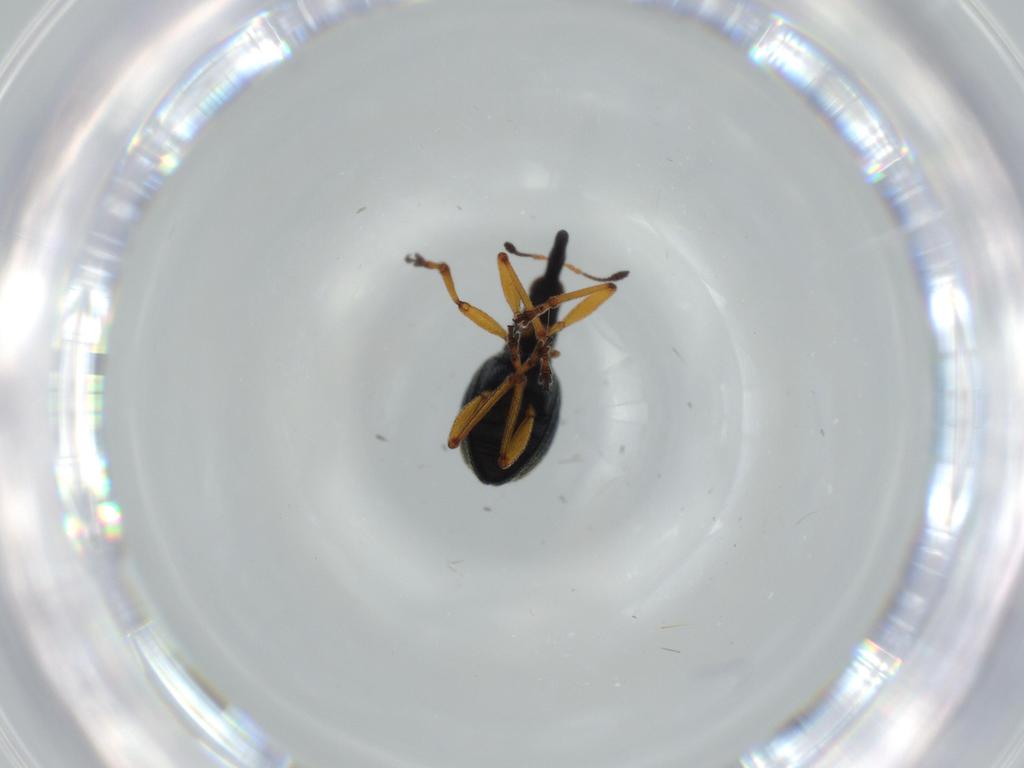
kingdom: Animalia
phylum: Arthropoda
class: Insecta
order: Coleoptera
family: Brentidae
